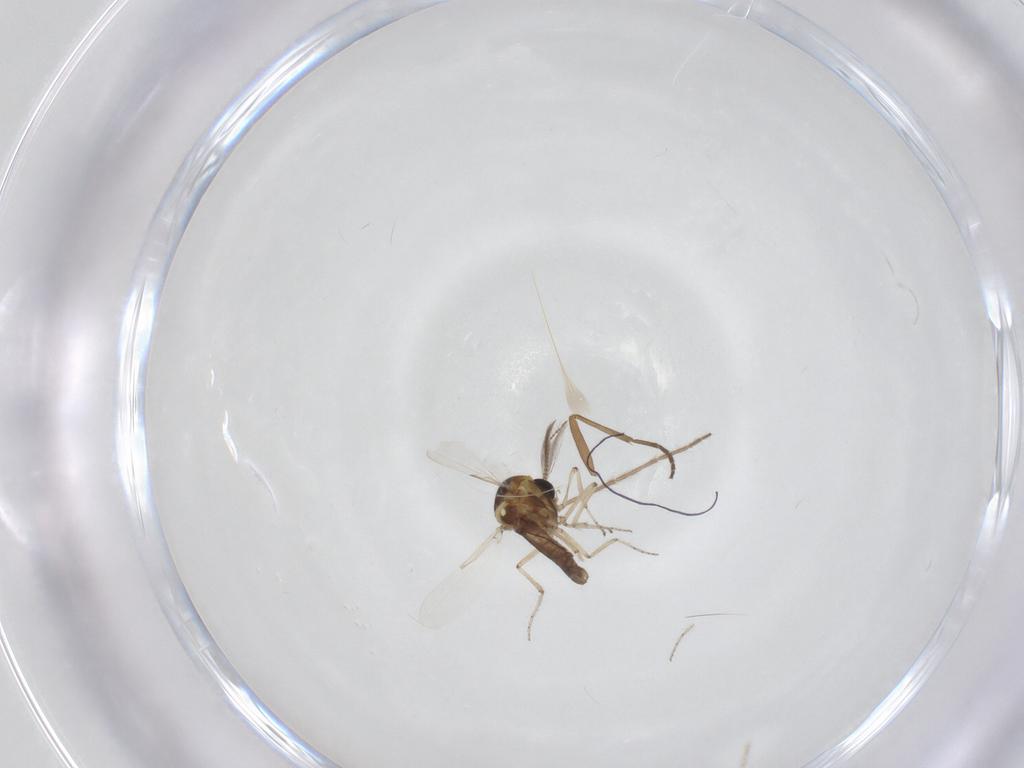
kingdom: Animalia
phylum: Arthropoda
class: Insecta
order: Diptera
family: Ceratopogonidae
